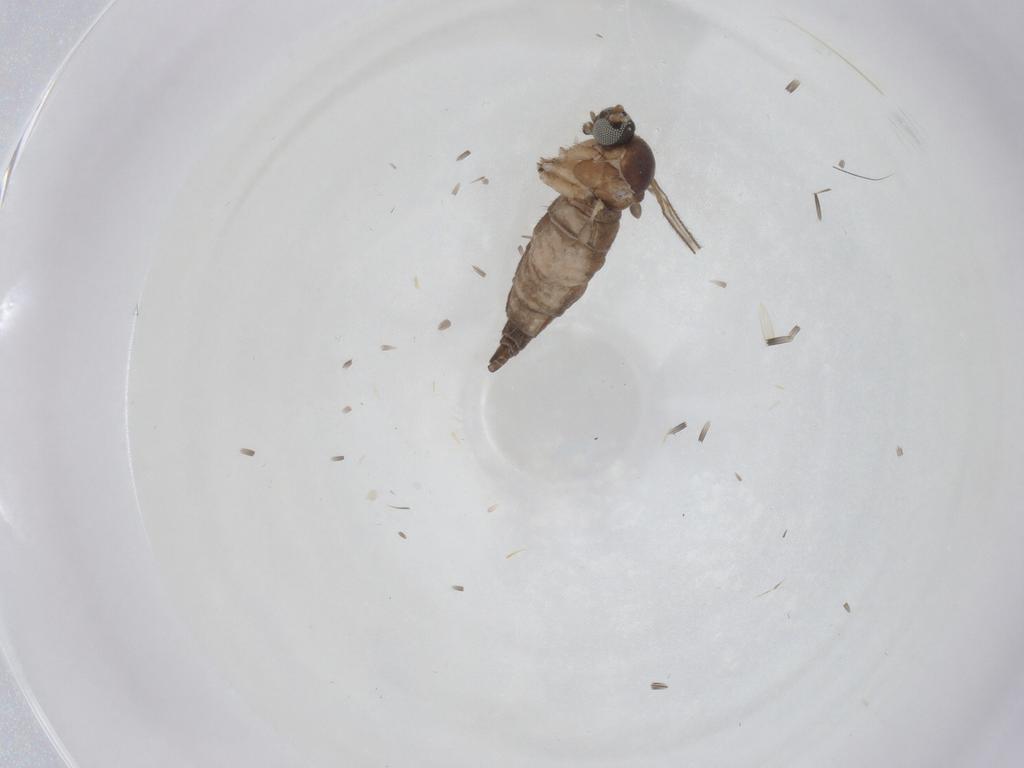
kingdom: Animalia
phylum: Arthropoda
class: Insecta
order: Diptera
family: Sciaridae
